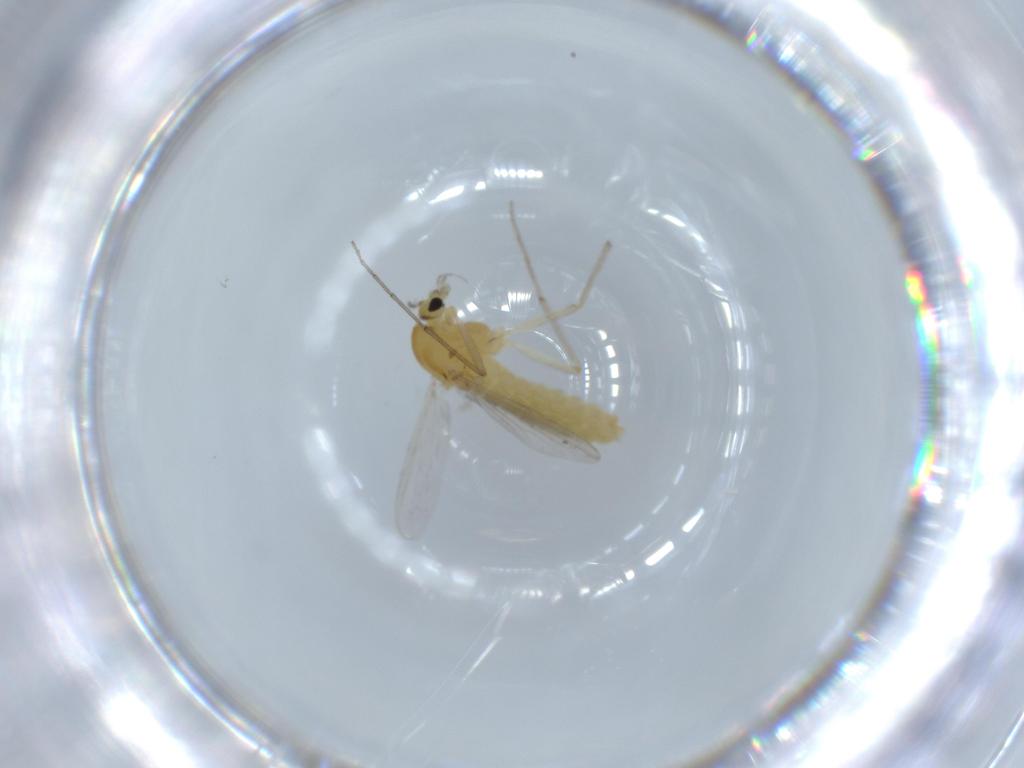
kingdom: Animalia
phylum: Arthropoda
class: Insecta
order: Diptera
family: Chironomidae
